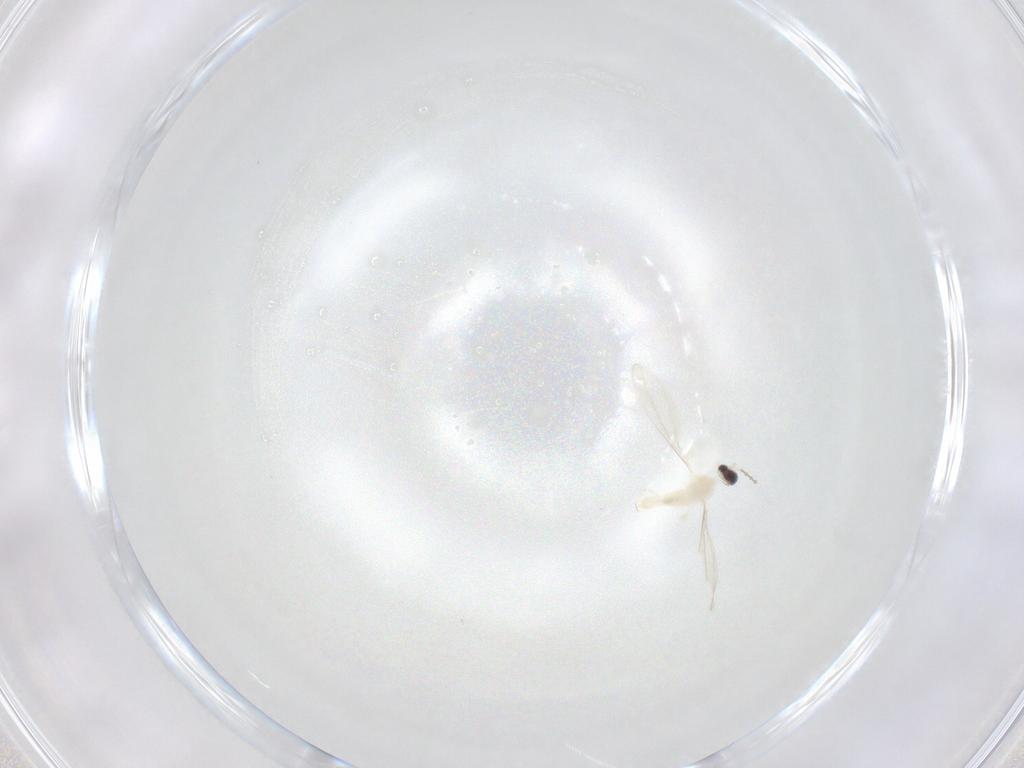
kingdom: Animalia
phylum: Arthropoda
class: Insecta
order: Diptera
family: Cecidomyiidae
